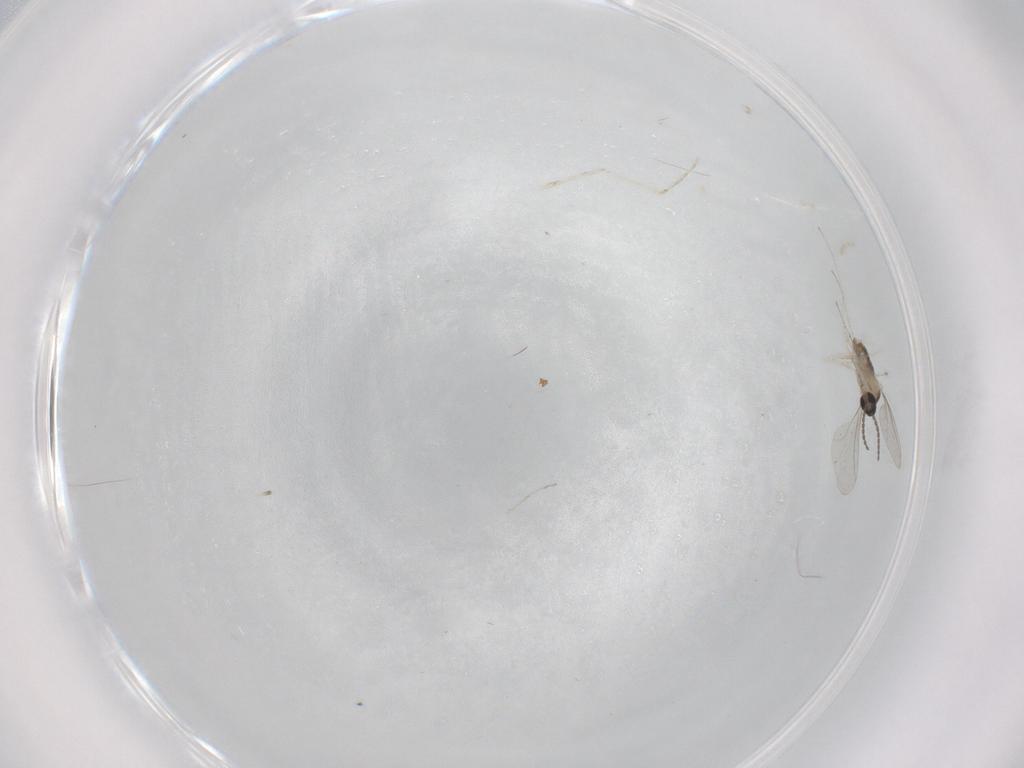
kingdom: Animalia
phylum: Arthropoda
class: Insecta
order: Diptera
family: Cecidomyiidae
